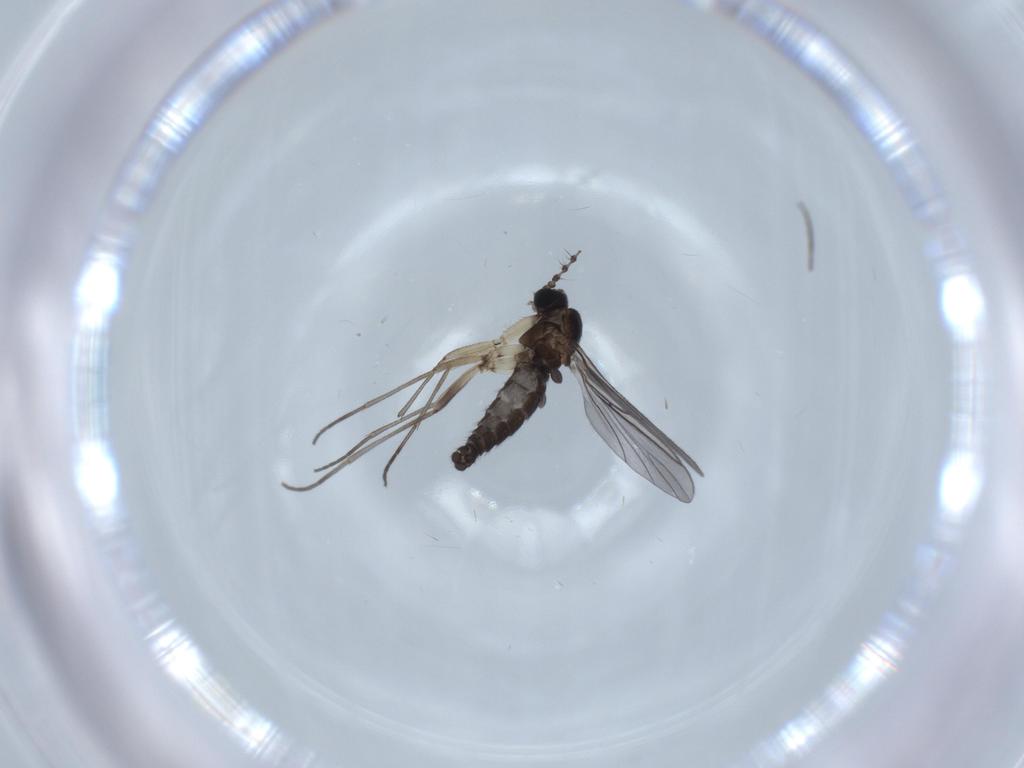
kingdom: Animalia
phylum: Arthropoda
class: Insecta
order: Diptera
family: Sciaridae
